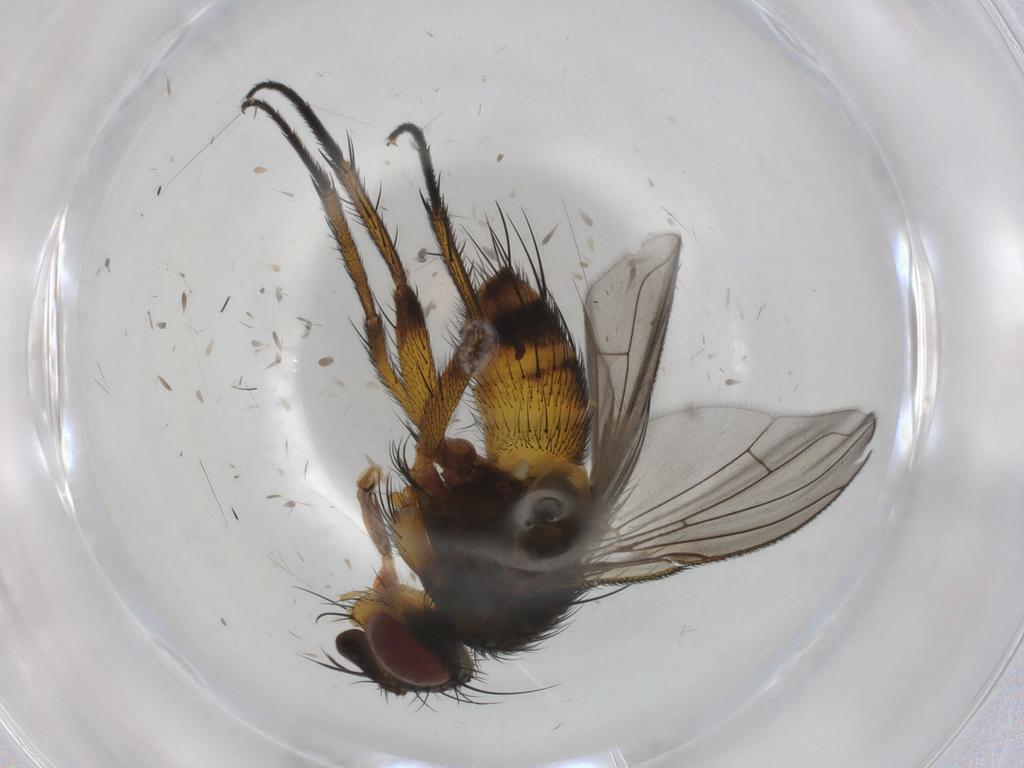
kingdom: Animalia
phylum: Arthropoda
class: Insecta
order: Diptera
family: Tachinidae
